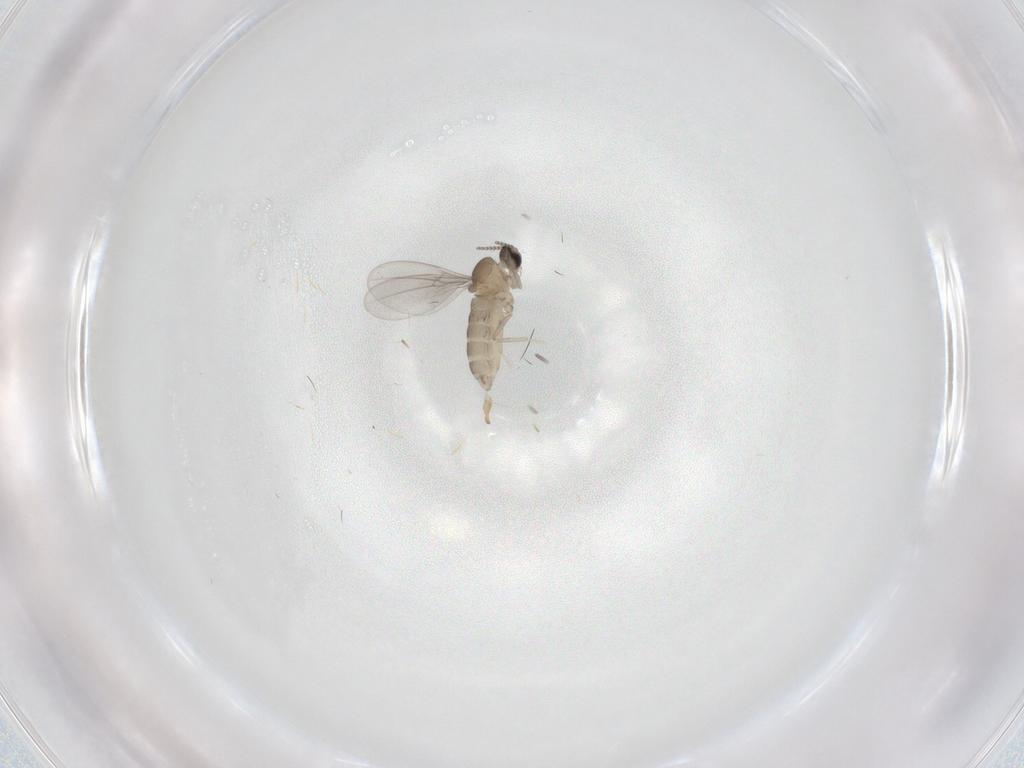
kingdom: Animalia
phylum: Arthropoda
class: Insecta
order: Diptera
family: Cecidomyiidae
